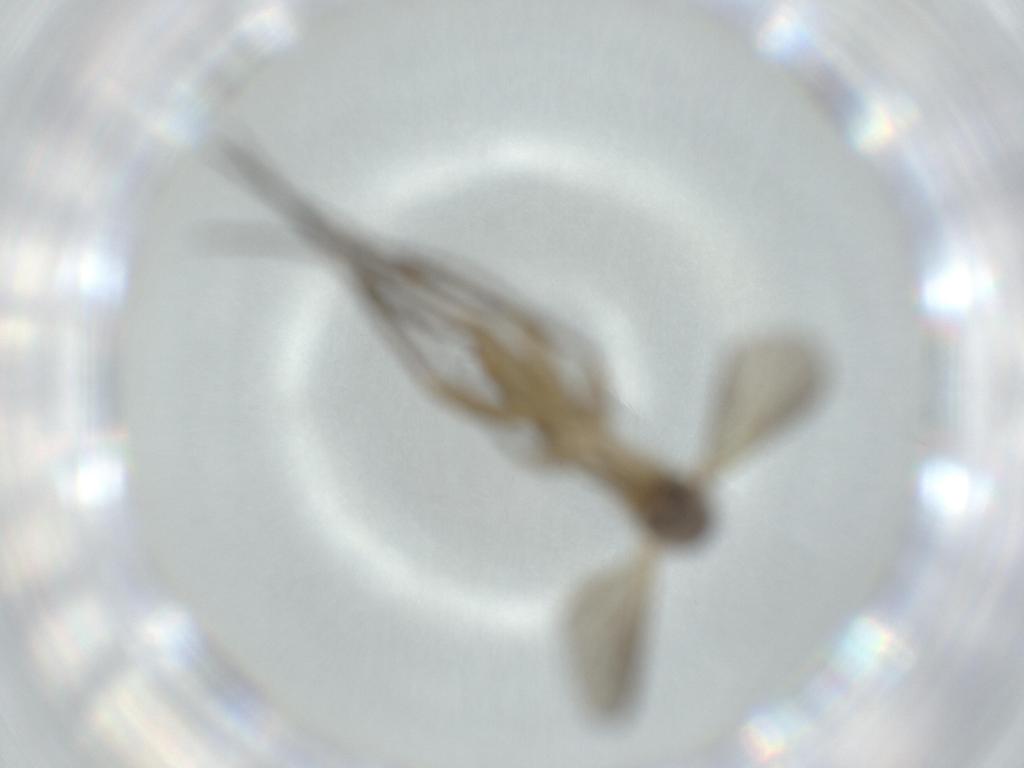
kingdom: Animalia
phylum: Arthropoda
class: Insecta
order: Diptera
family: Mycetophilidae
